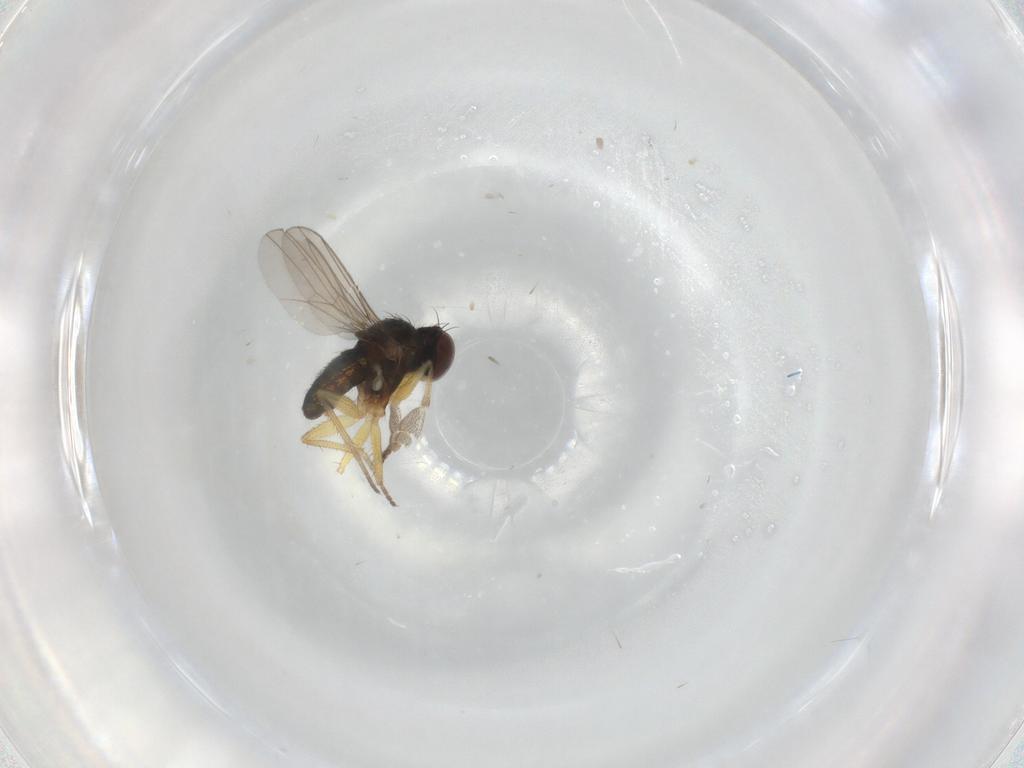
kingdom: Animalia
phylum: Arthropoda
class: Insecta
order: Diptera
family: Dolichopodidae
